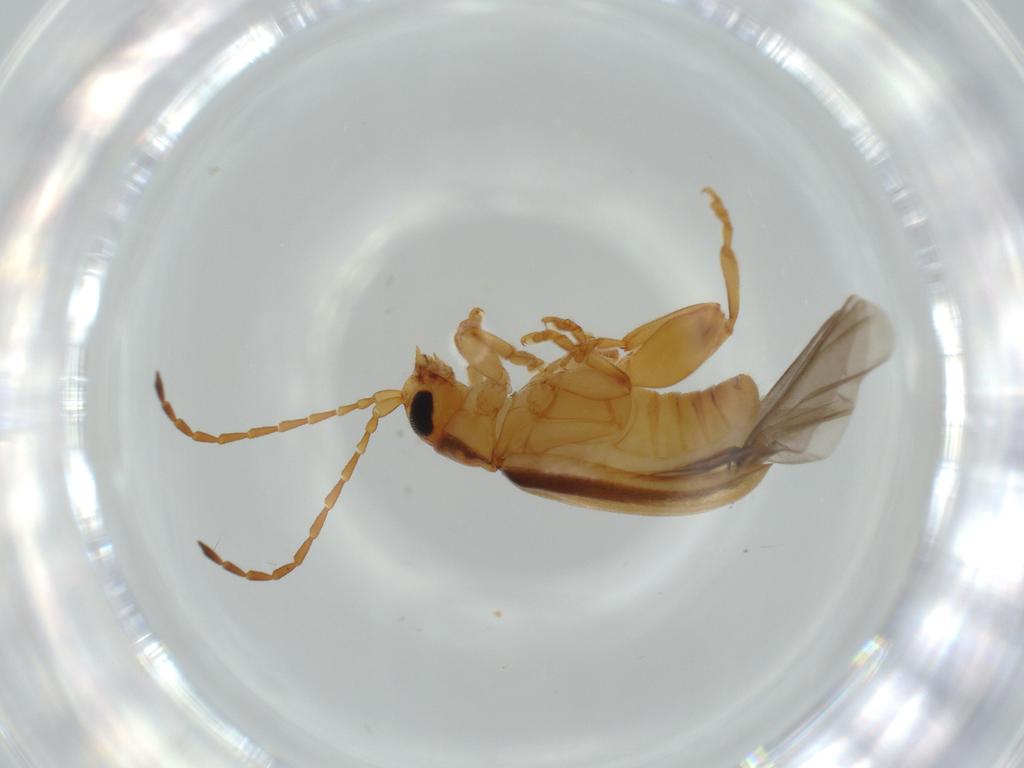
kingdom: Animalia
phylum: Arthropoda
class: Insecta
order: Coleoptera
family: Chrysomelidae
